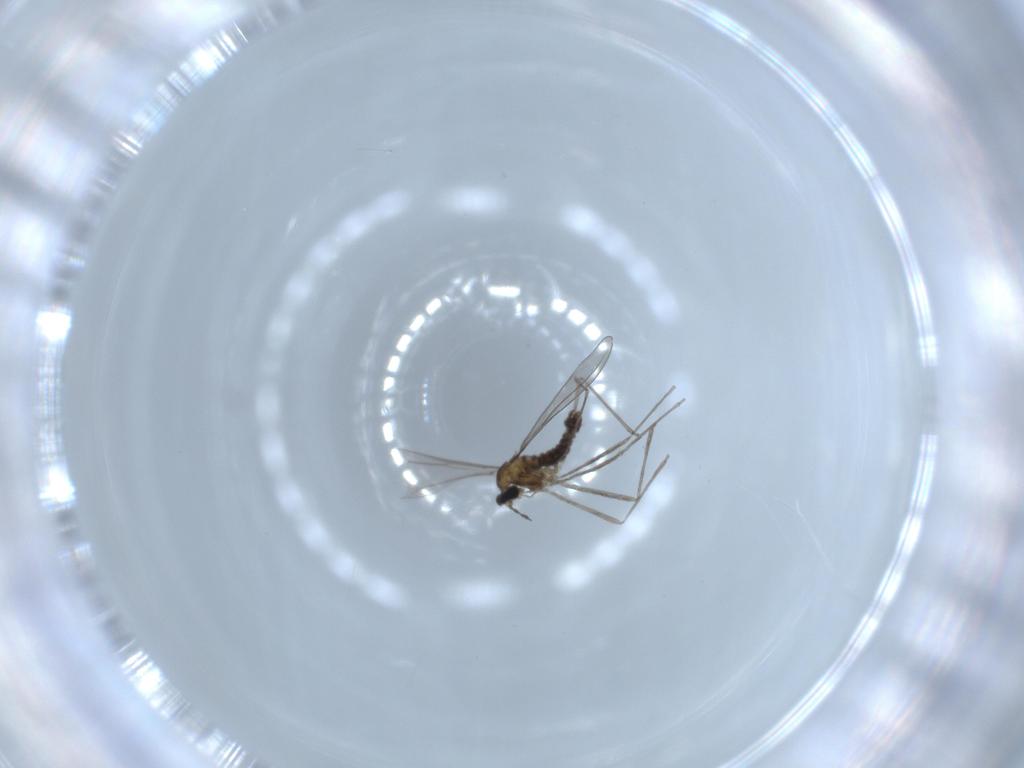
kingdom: Animalia
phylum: Arthropoda
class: Insecta
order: Diptera
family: Cecidomyiidae
